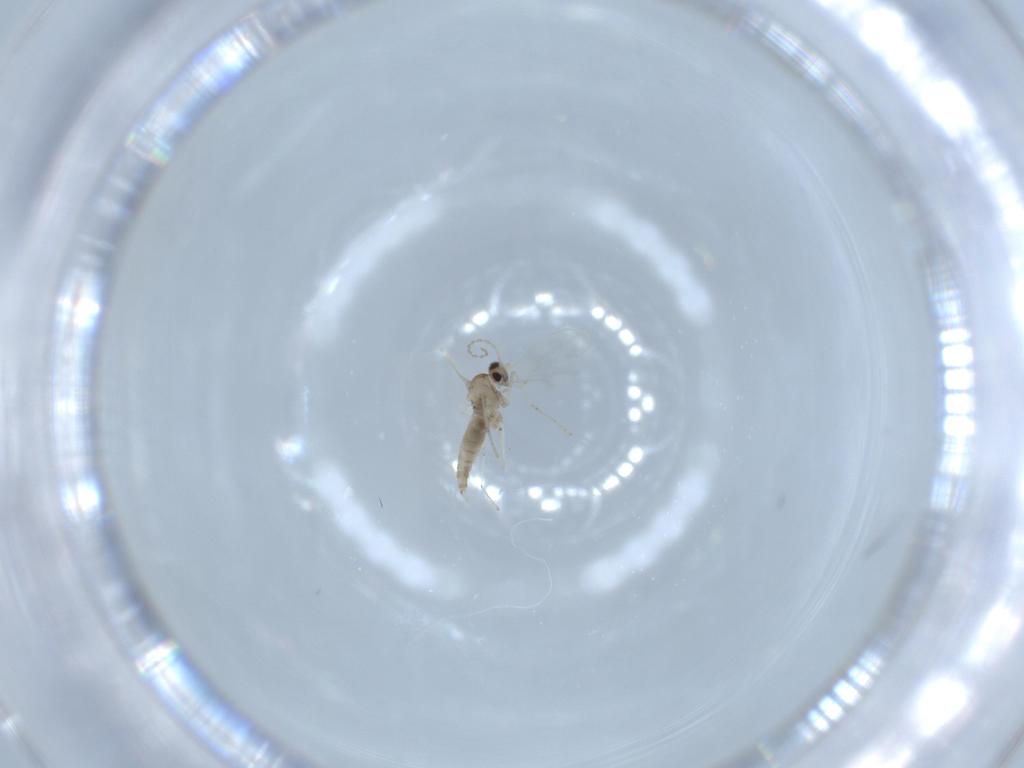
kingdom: Animalia
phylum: Arthropoda
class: Insecta
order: Diptera
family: Cecidomyiidae
